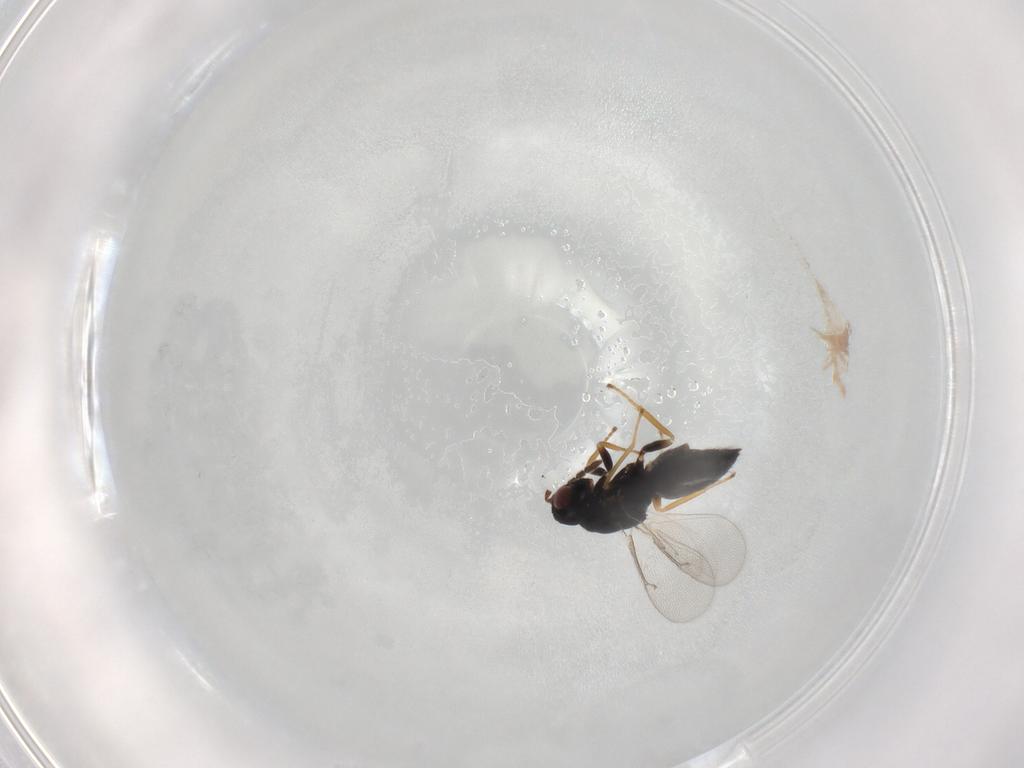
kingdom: Animalia
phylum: Arthropoda
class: Insecta
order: Hymenoptera
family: Eulophidae
